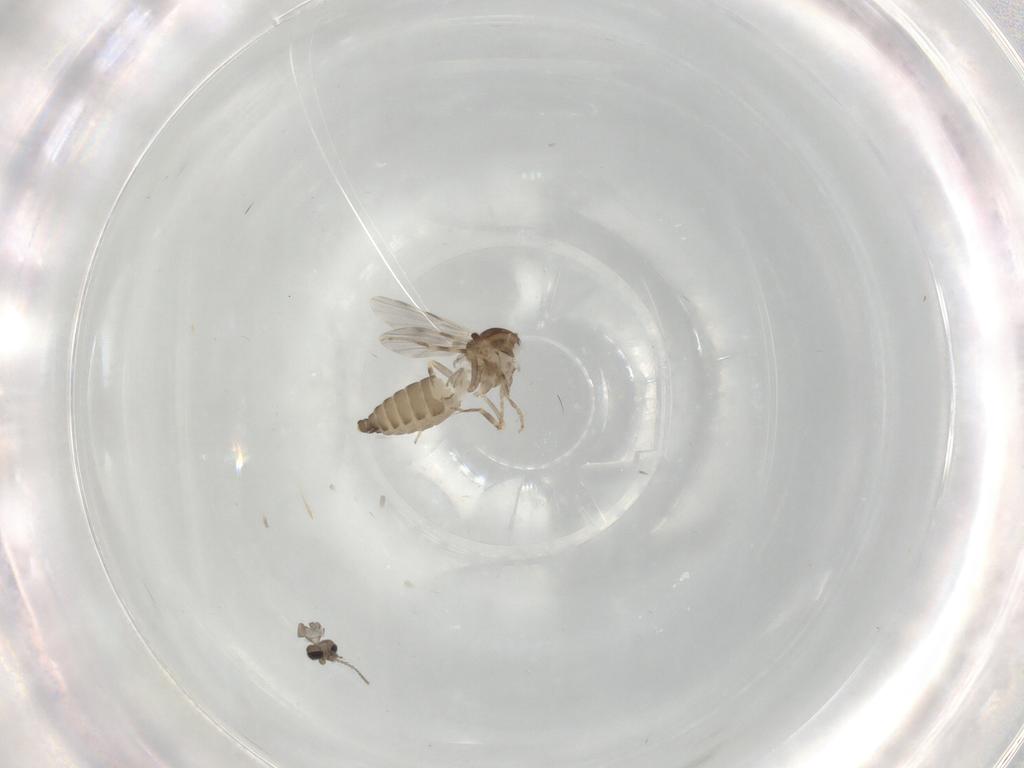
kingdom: Animalia
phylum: Arthropoda
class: Insecta
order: Diptera
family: Ceratopogonidae
